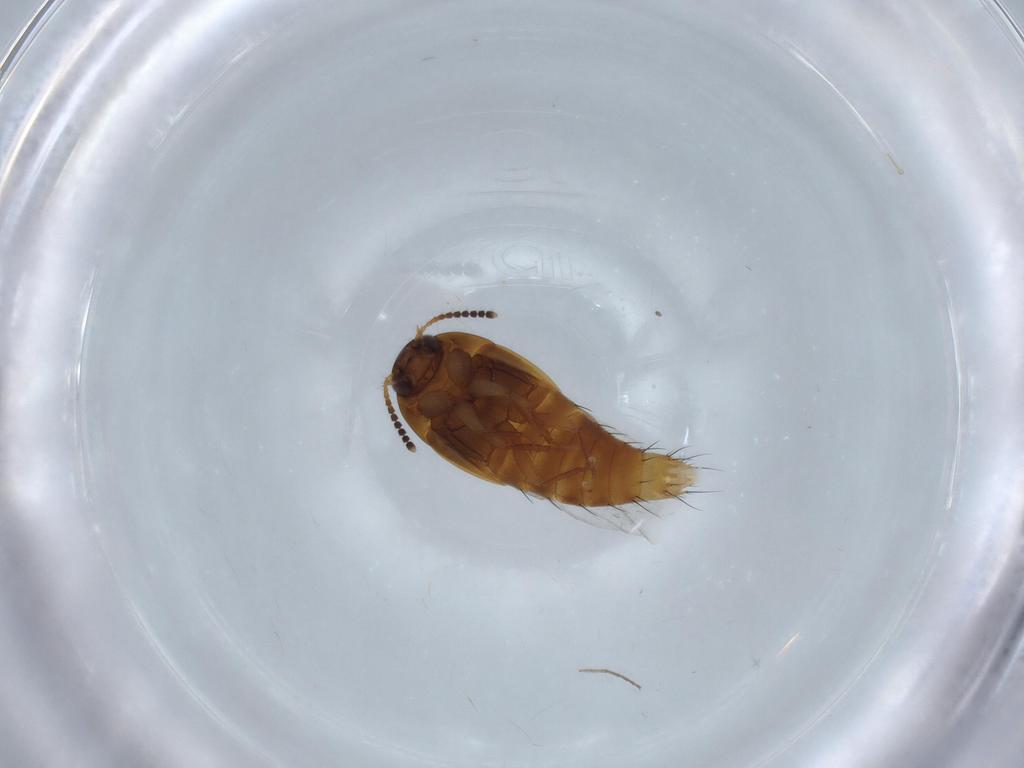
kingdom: Animalia
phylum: Arthropoda
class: Insecta
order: Coleoptera
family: Staphylinidae
